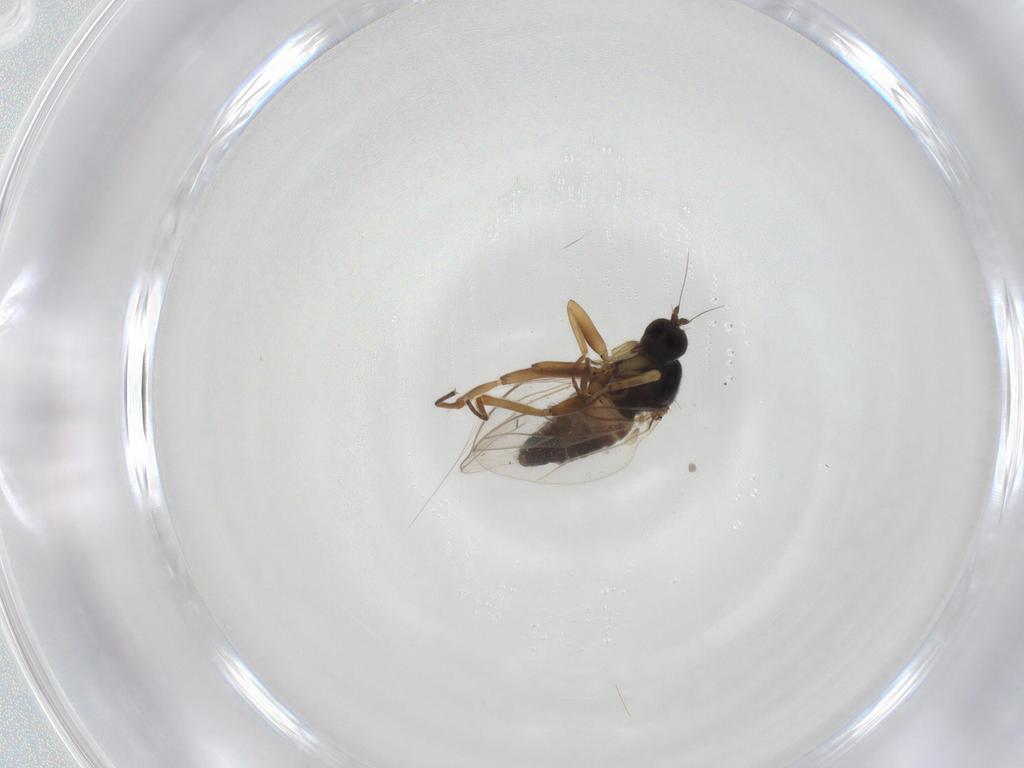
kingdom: Animalia
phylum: Arthropoda
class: Insecta
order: Diptera
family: Hybotidae
